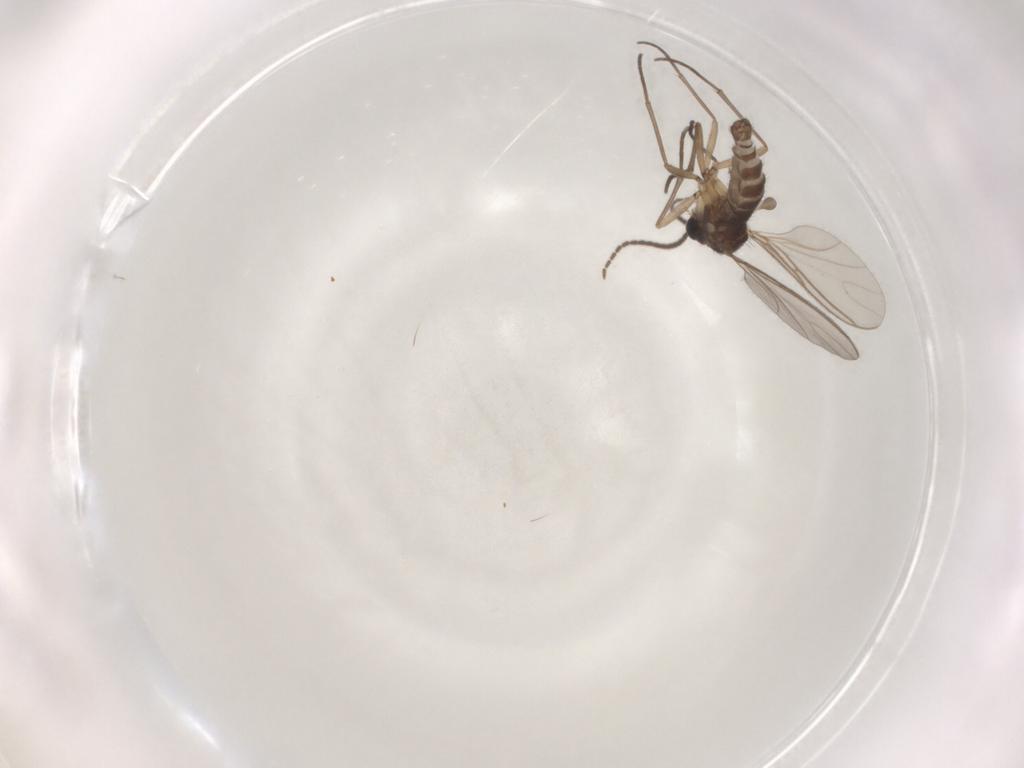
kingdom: Animalia
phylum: Arthropoda
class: Insecta
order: Diptera
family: Sciaridae
